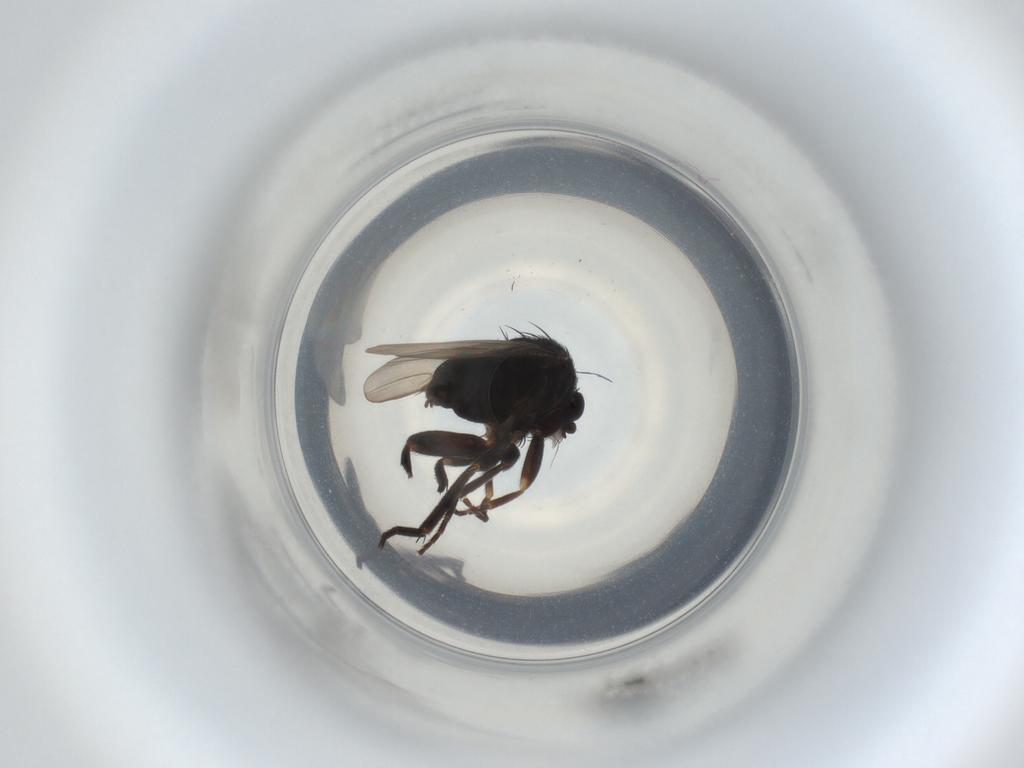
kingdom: Animalia
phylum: Arthropoda
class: Insecta
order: Diptera
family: Phoridae
